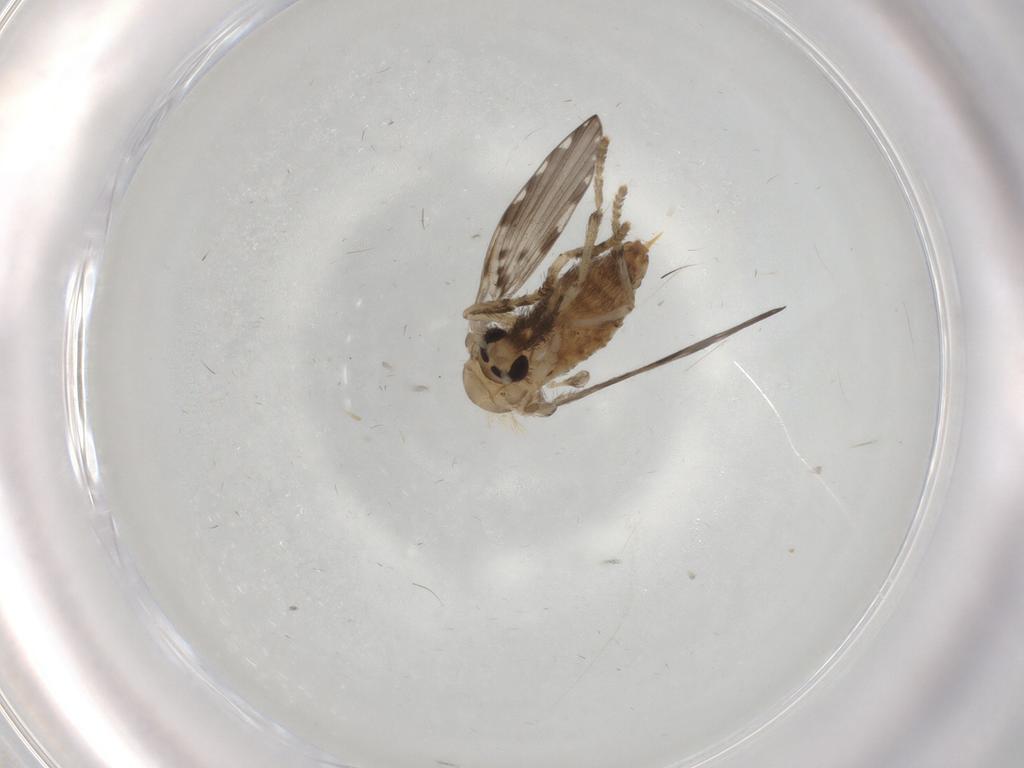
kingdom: Animalia
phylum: Arthropoda
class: Insecta
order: Diptera
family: Psychodidae
